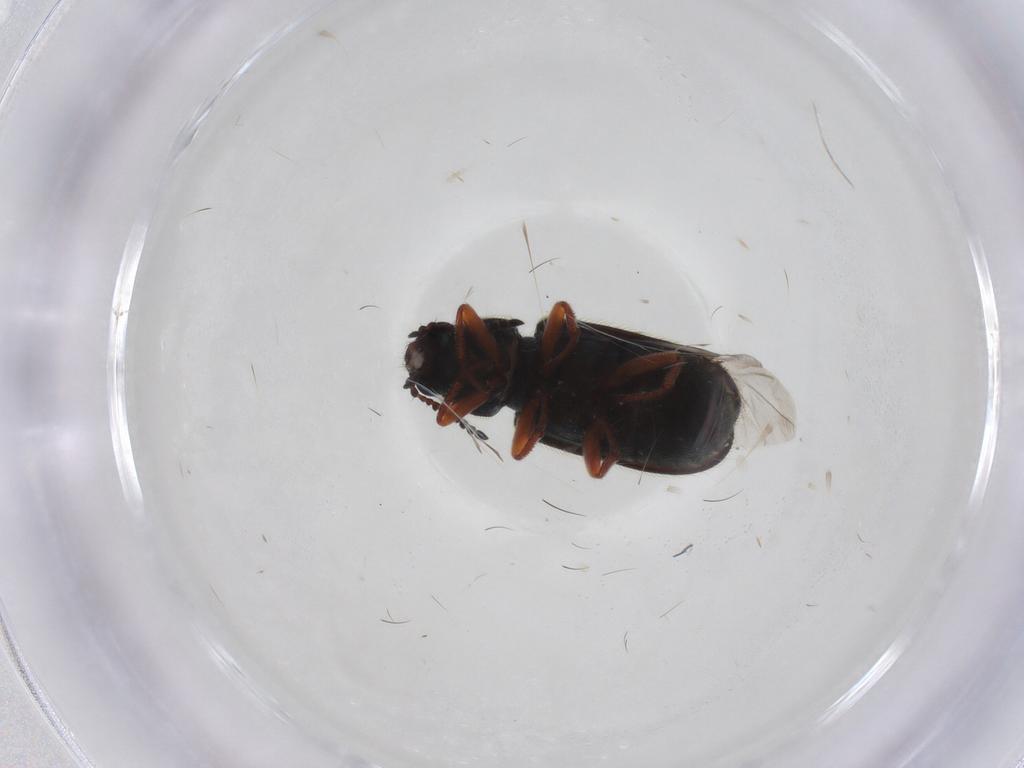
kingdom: Animalia
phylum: Arthropoda
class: Insecta
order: Coleoptera
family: Melyridae
